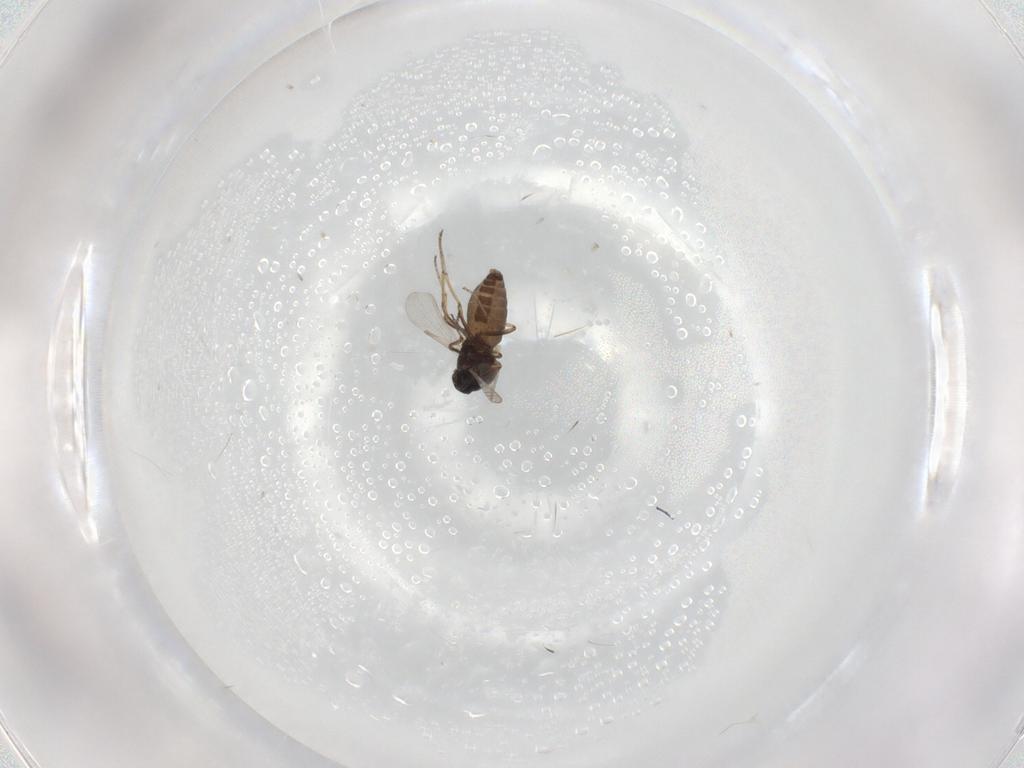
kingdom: Animalia
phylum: Arthropoda
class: Insecta
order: Diptera
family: Ceratopogonidae
